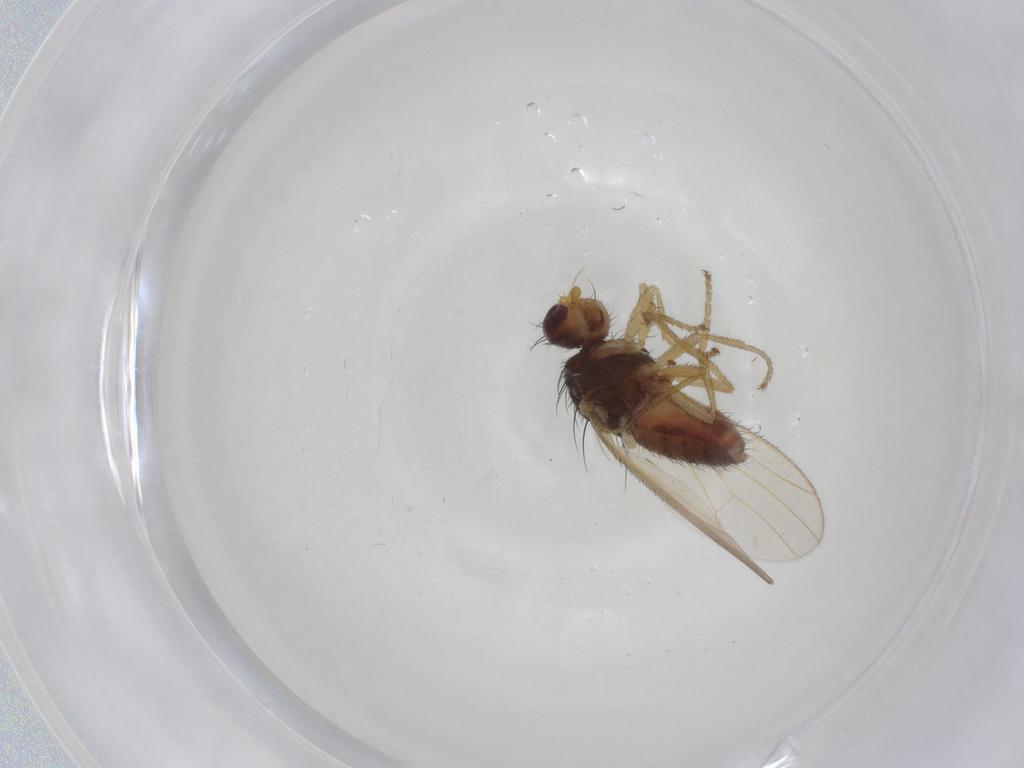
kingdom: Animalia
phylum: Arthropoda
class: Insecta
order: Diptera
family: Heleomyzidae
